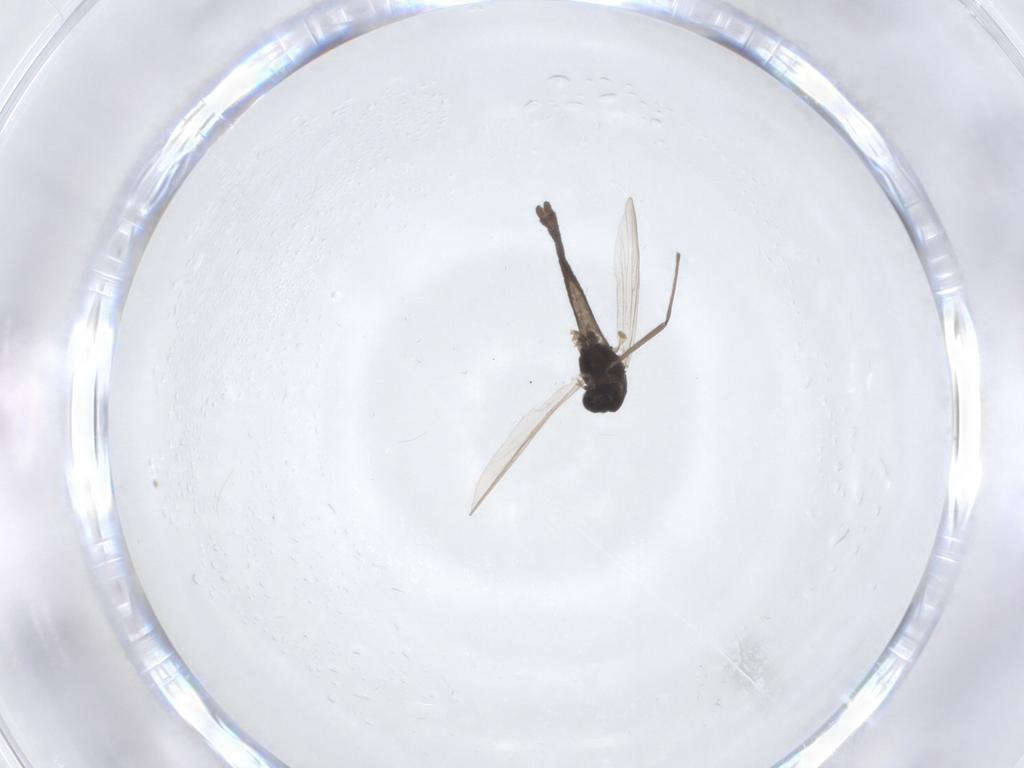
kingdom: Animalia
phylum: Arthropoda
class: Insecta
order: Diptera
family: Chironomidae
